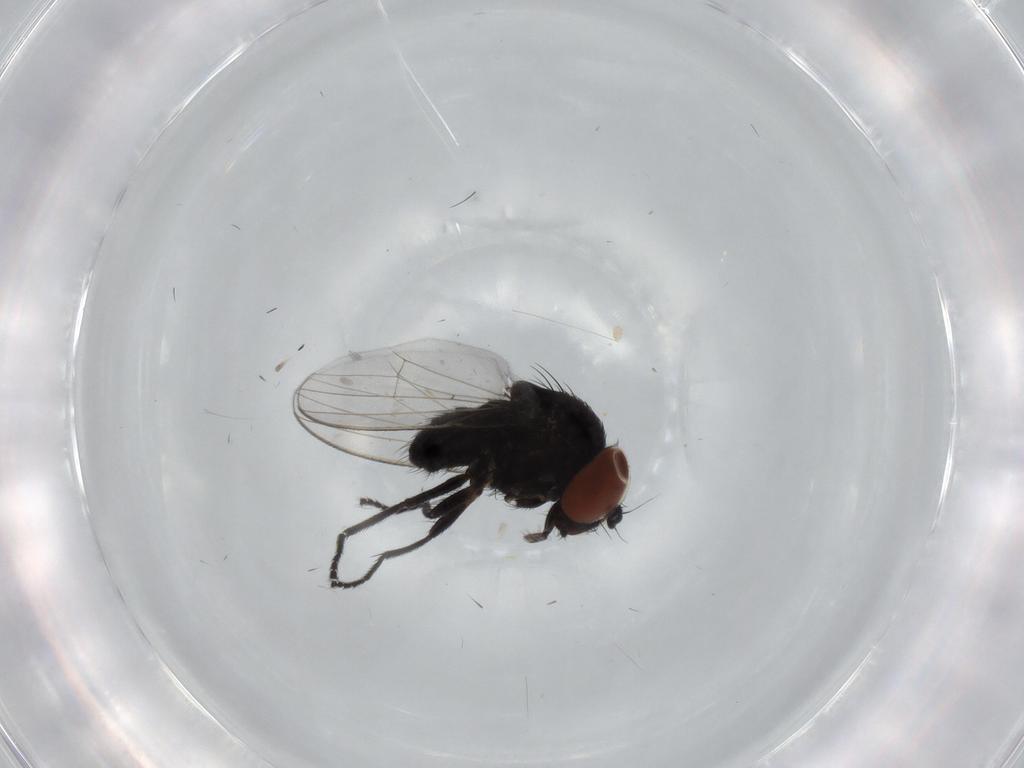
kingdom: Animalia
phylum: Arthropoda
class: Insecta
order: Diptera
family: Milichiidae
